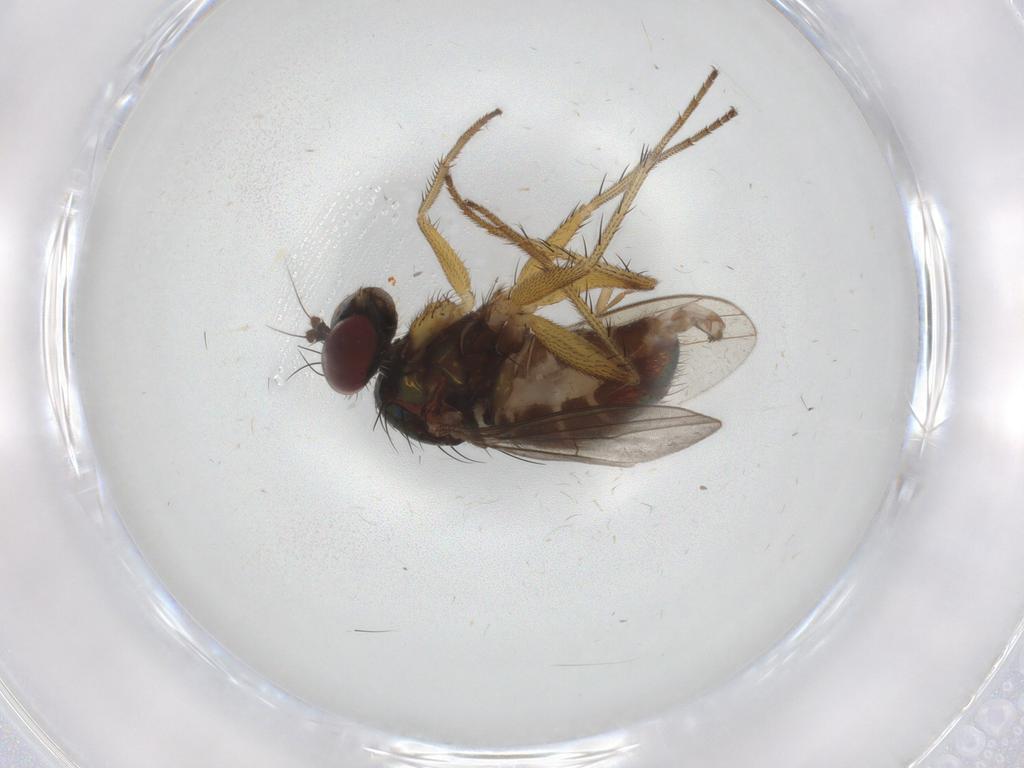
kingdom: Animalia
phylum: Arthropoda
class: Insecta
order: Diptera
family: Dolichopodidae
